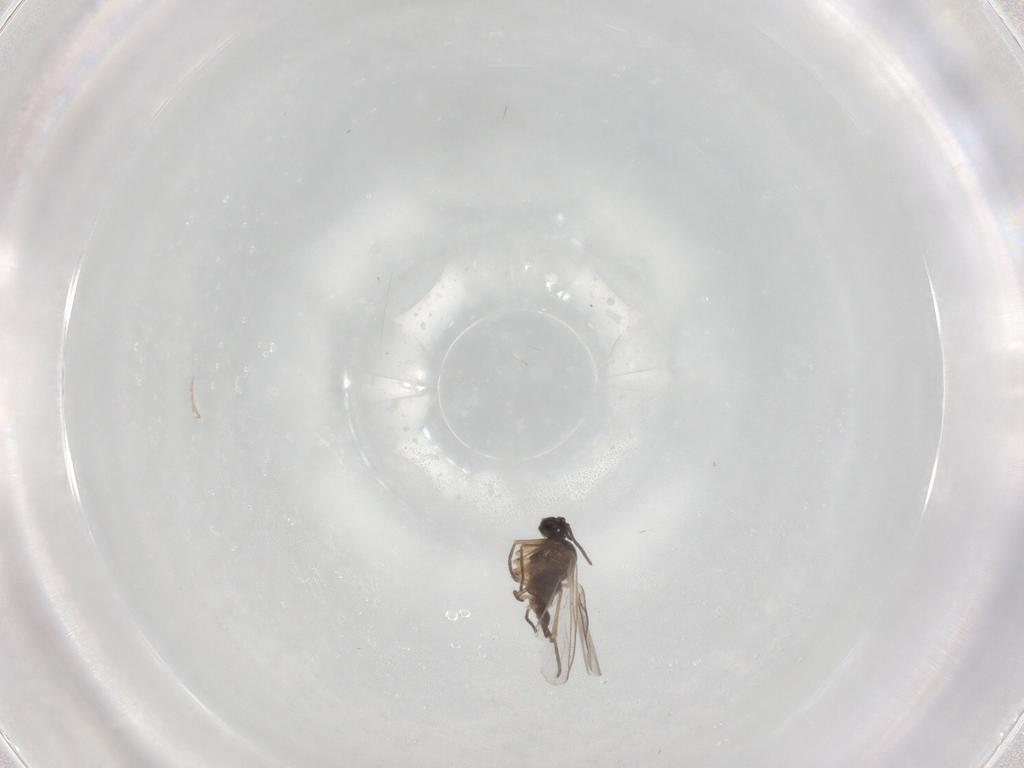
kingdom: Animalia
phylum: Arthropoda
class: Insecta
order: Diptera
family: Sciaridae
